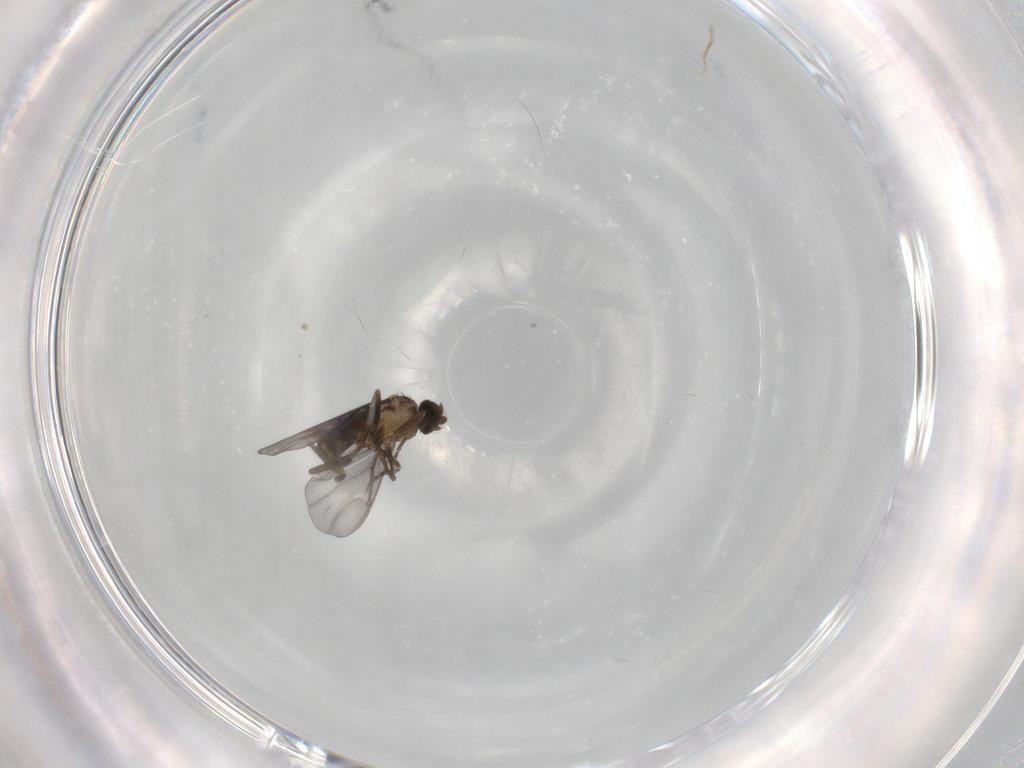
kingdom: Animalia
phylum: Arthropoda
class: Insecta
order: Diptera
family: Phoridae
